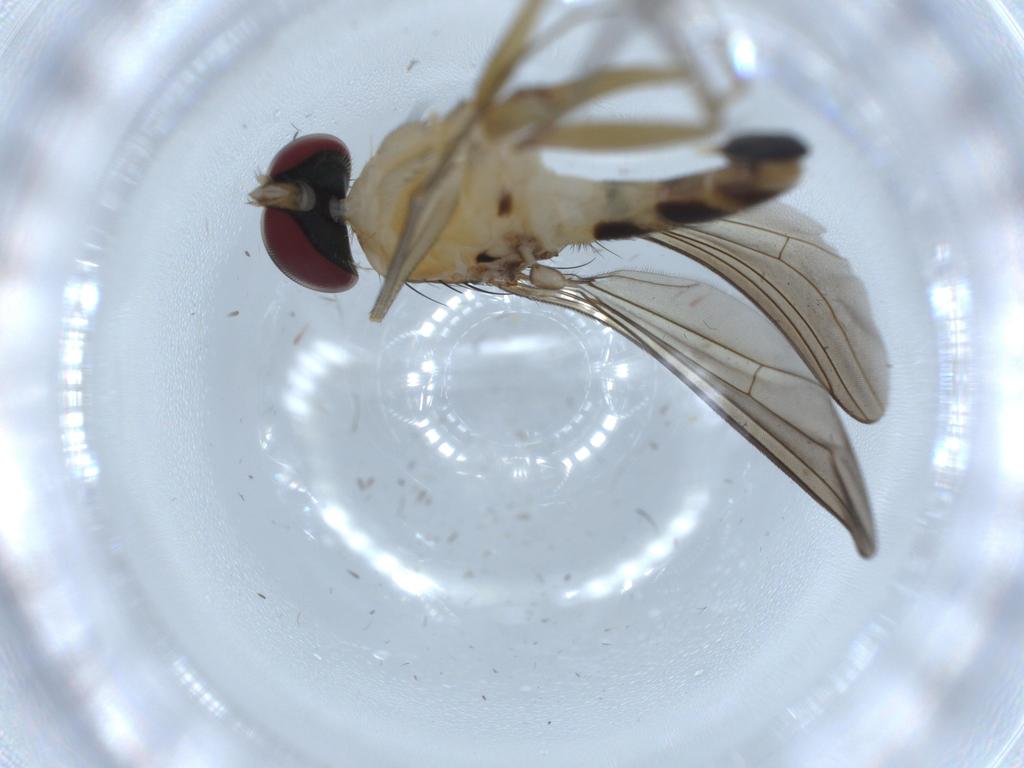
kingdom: Animalia
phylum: Arthropoda
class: Insecta
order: Diptera
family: Dolichopodidae
